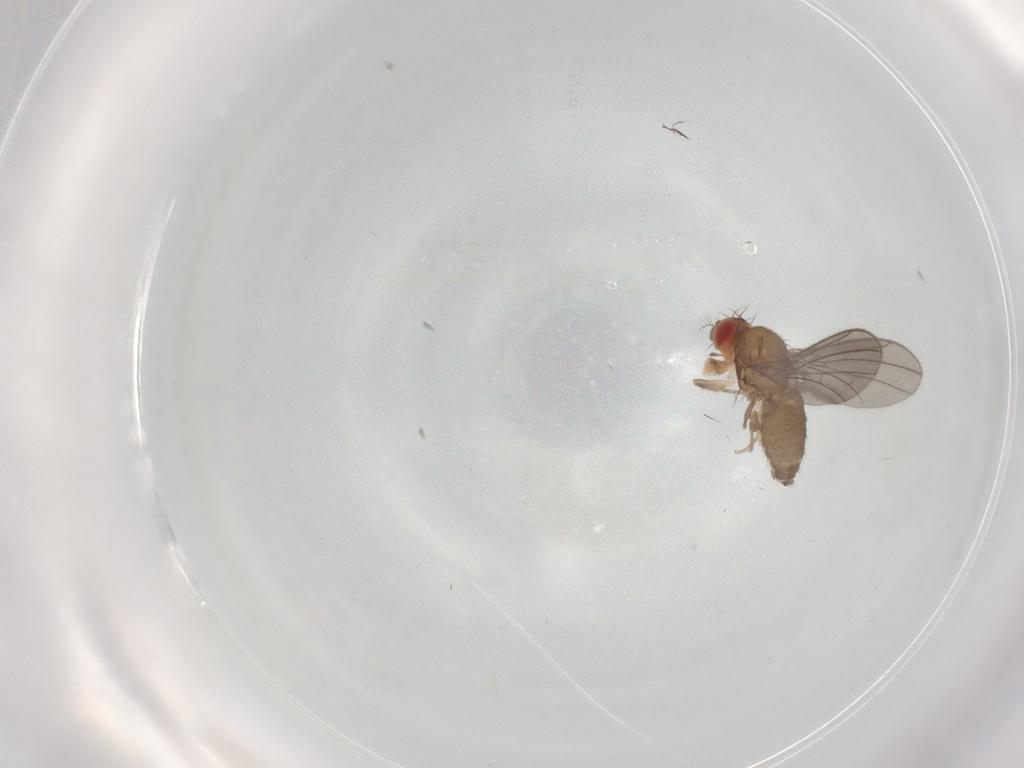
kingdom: Animalia
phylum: Arthropoda
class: Insecta
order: Diptera
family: Drosophilidae
